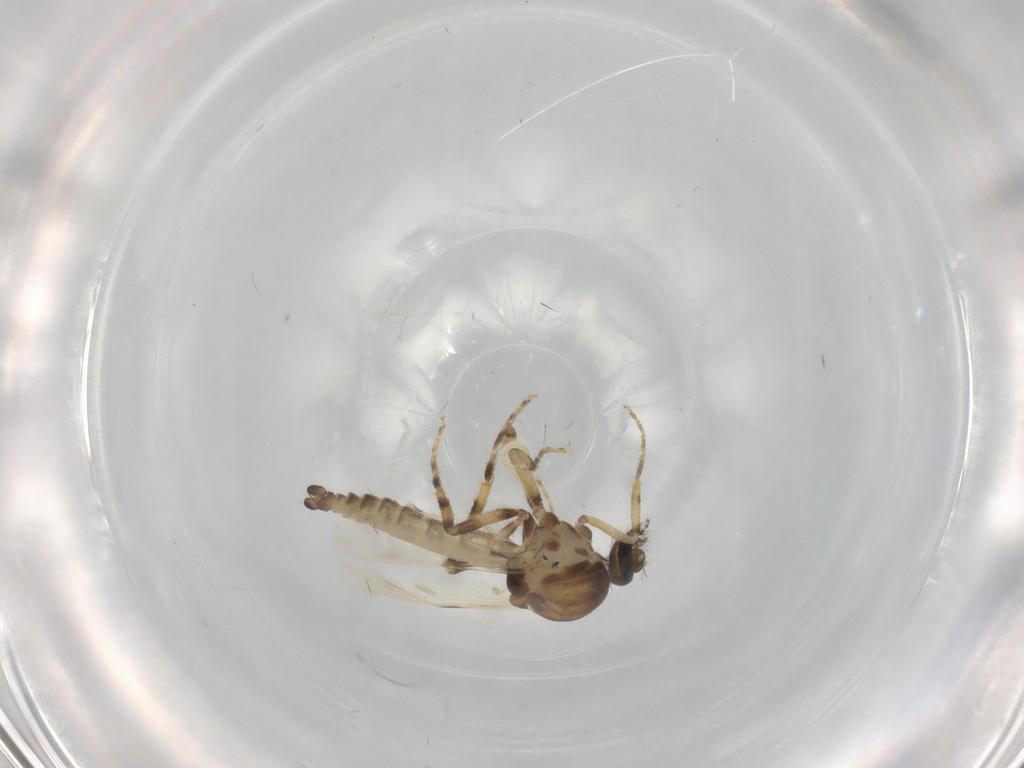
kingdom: Animalia
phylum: Arthropoda
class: Insecta
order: Diptera
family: Ceratopogonidae
